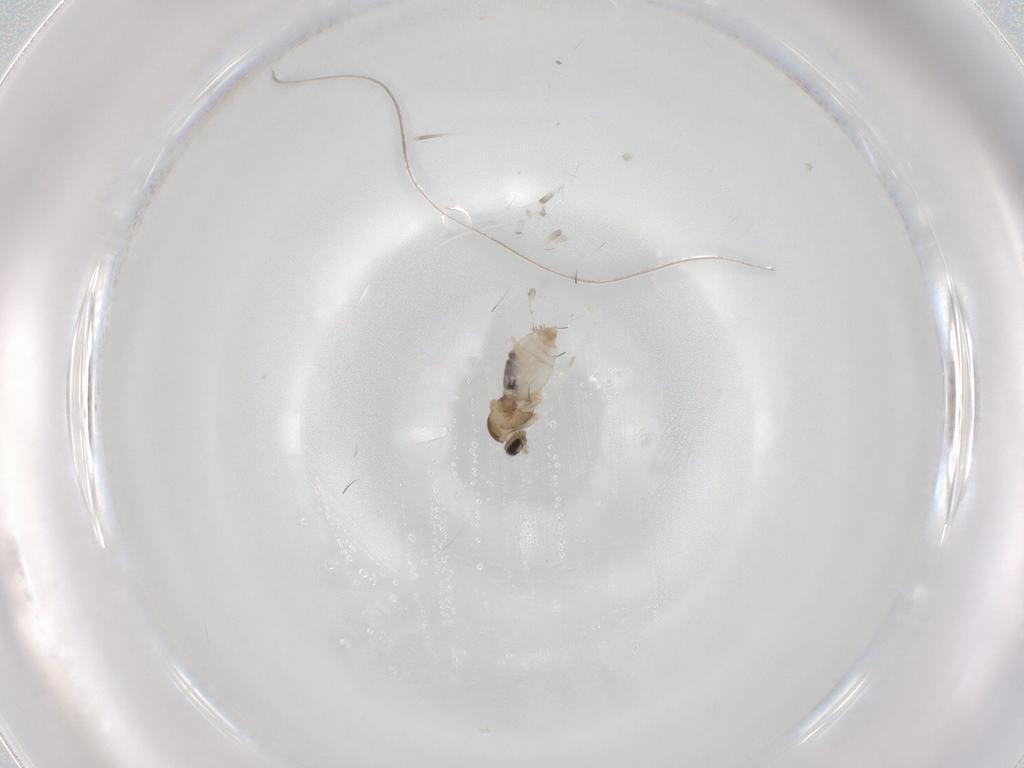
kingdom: Animalia
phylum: Arthropoda
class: Insecta
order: Diptera
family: Cecidomyiidae
